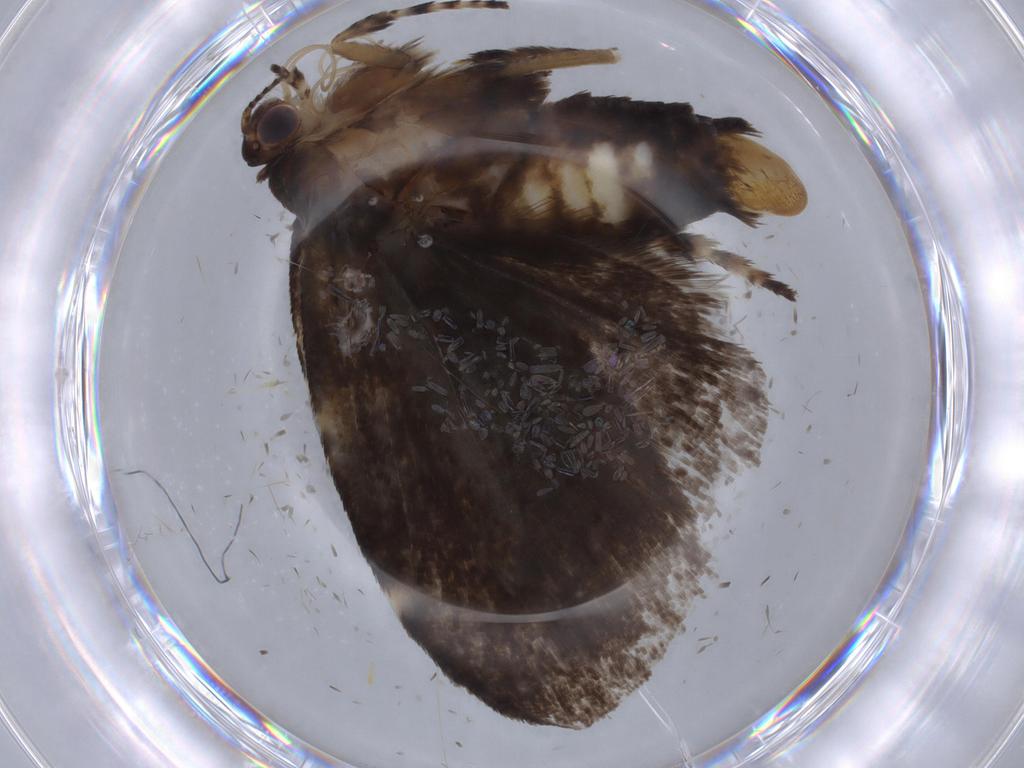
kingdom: Animalia
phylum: Arthropoda
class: Insecta
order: Lepidoptera
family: Choreutidae
